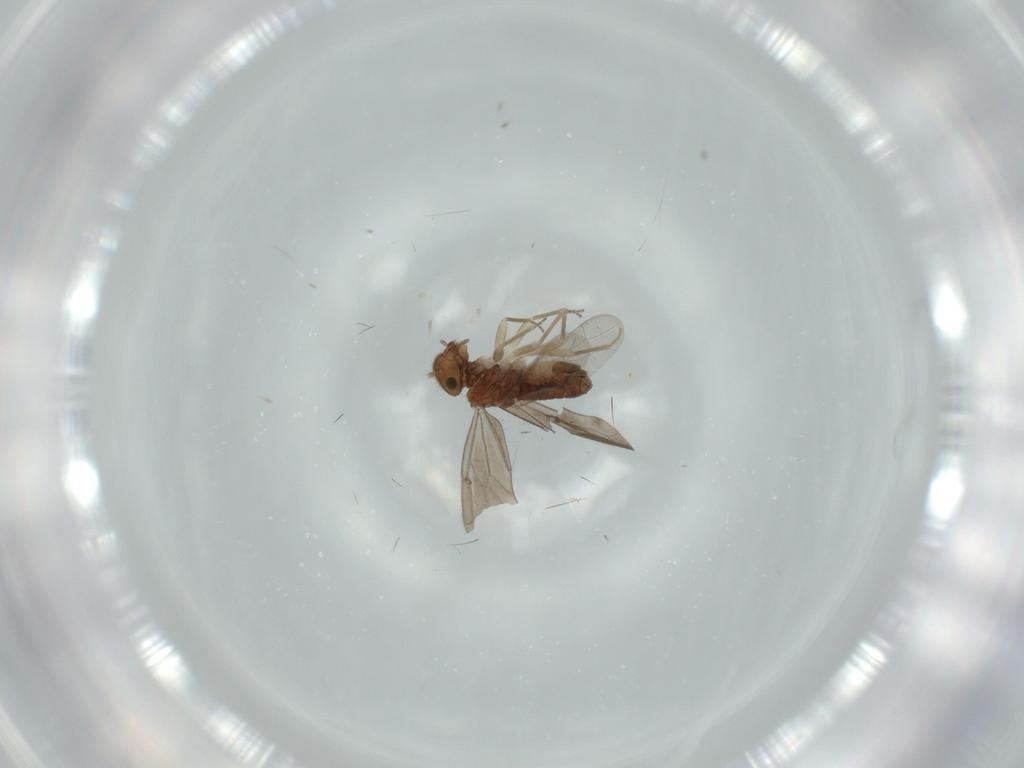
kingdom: Animalia
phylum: Arthropoda
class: Insecta
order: Psocodea
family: Ectopsocidae
